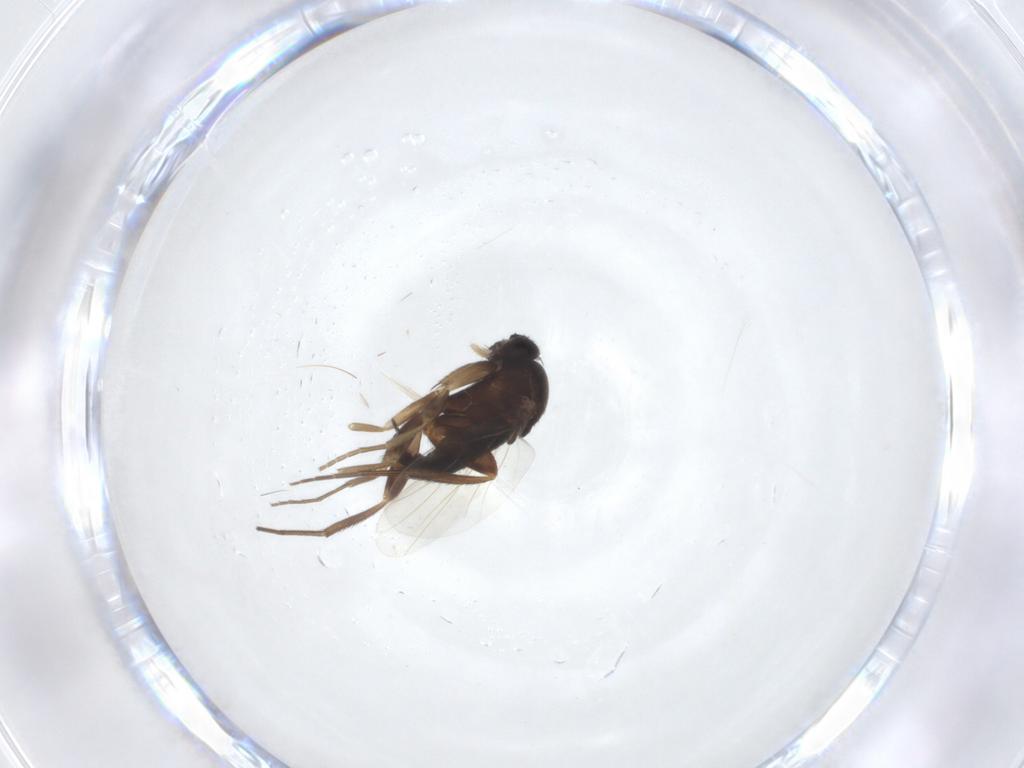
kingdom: Animalia
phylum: Arthropoda
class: Insecta
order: Diptera
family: Phoridae
